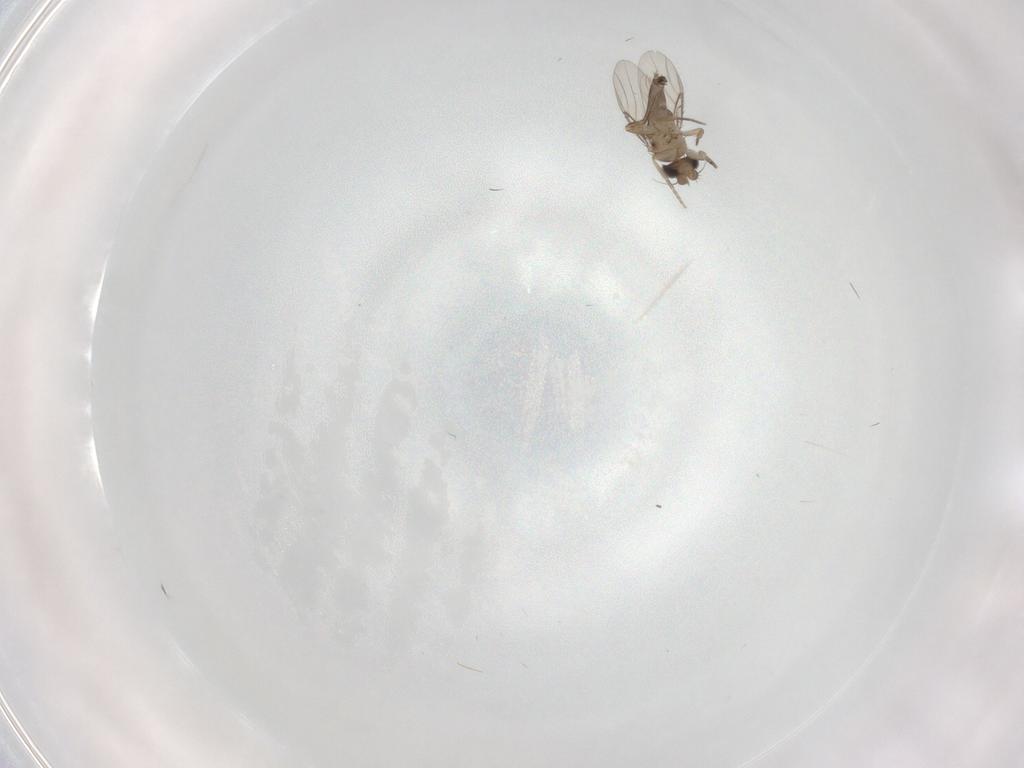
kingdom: Animalia
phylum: Arthropoda
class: Insecta
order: Diptera
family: Phoridae
